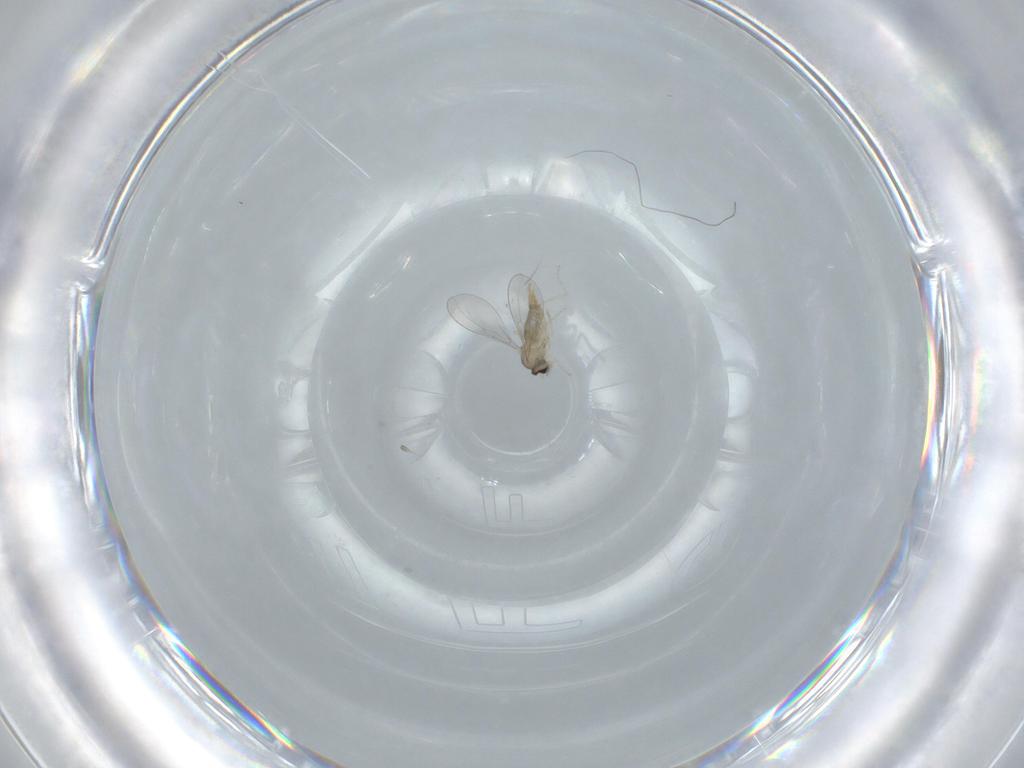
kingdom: Animalia
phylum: Arthropoda
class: Insecta
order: Diptera
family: Sciaridae
